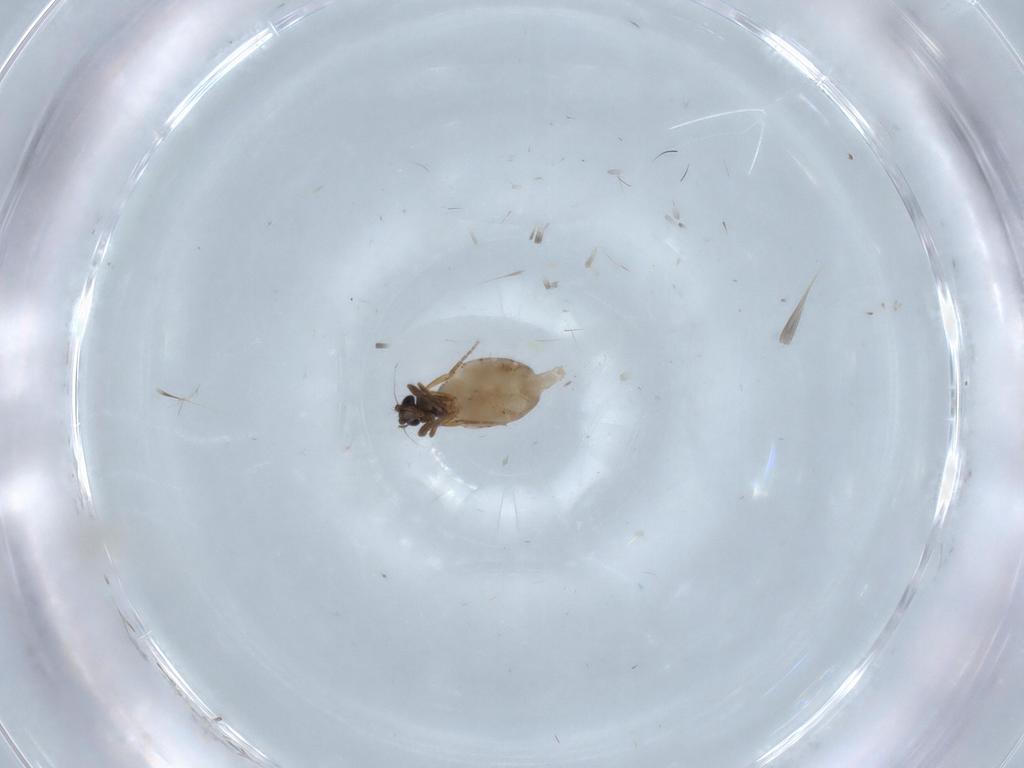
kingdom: Animalia
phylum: Arthropoda
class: Insecta
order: Diptera
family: Phoridae
